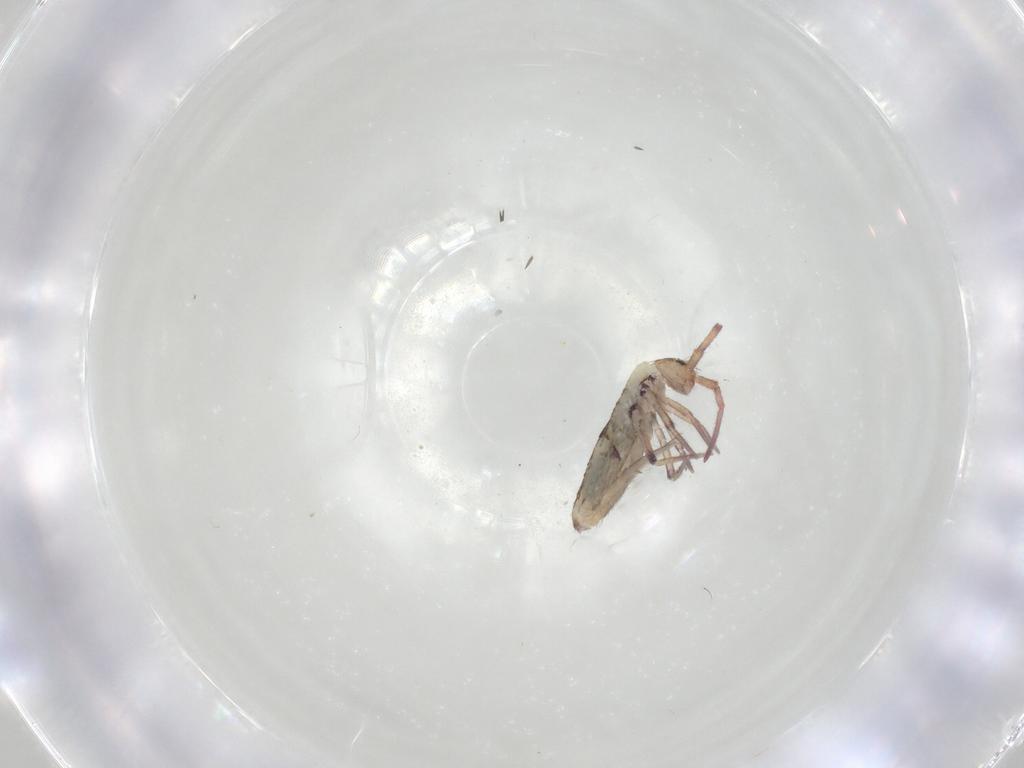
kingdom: Animalia
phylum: Arthropoda
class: Collembola
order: Entomobryomorpha
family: Entomobryidae
